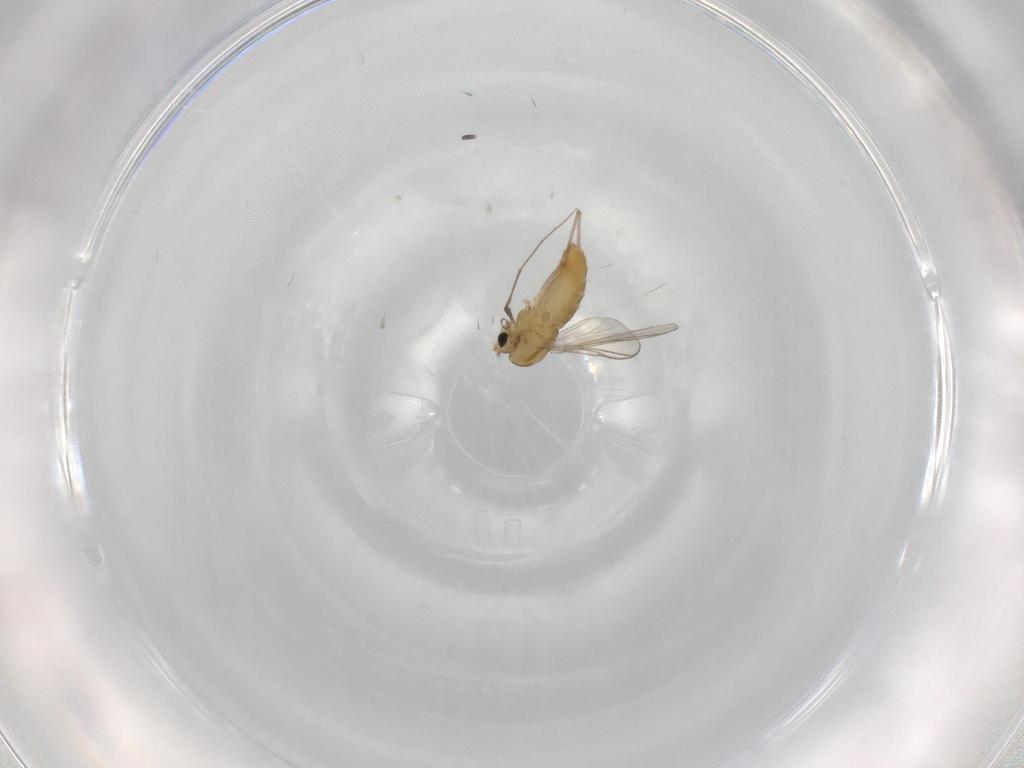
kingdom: Animalia
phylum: Arthropoda
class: Insecta
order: Diptera
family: Chironomidae
